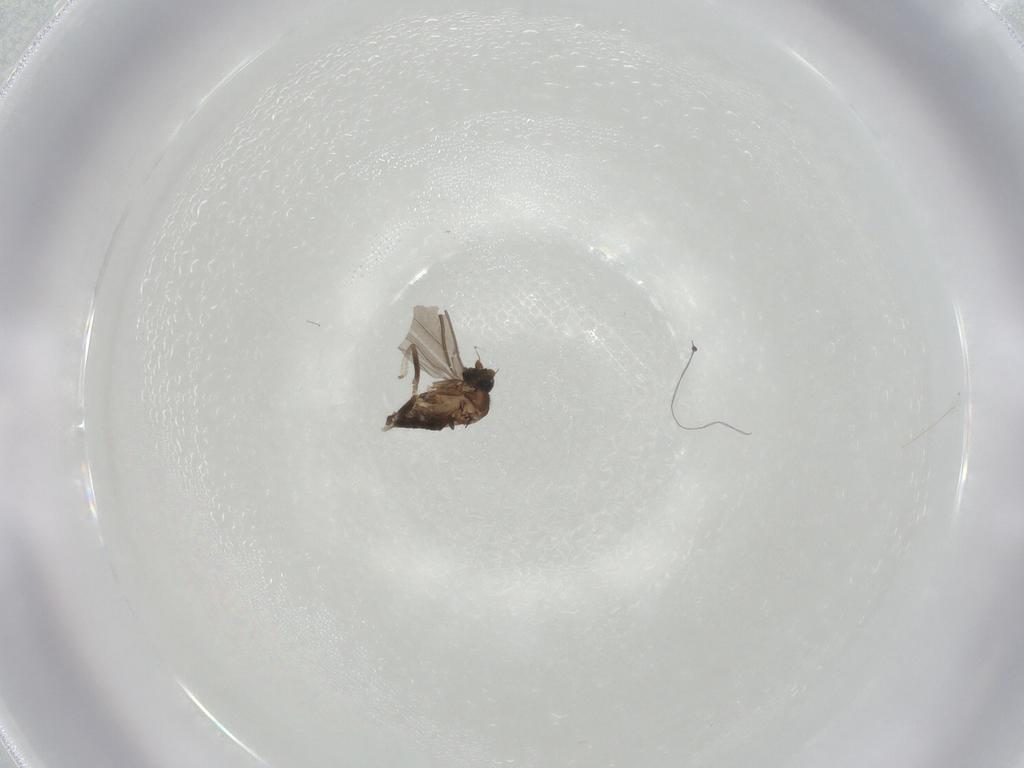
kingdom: Animalia
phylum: Arthropoda
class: Insecta
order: Diptera
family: Phoridae
